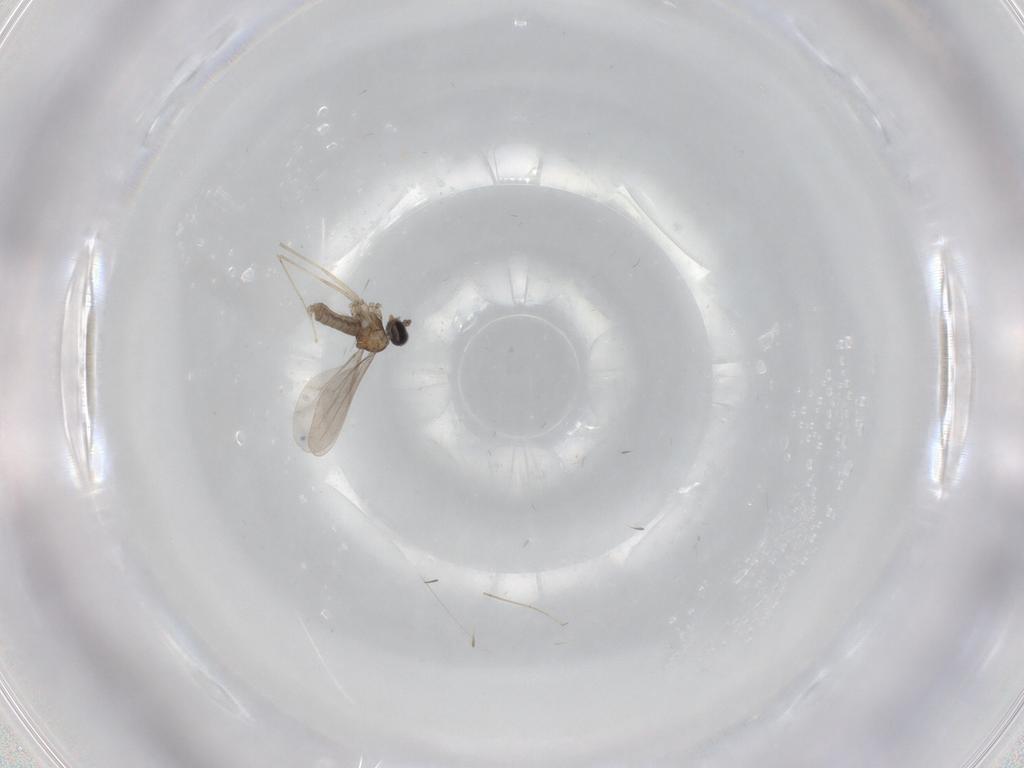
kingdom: Animalia
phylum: Arthropoda
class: Insecta
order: Diptera
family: Cecidomyiidae
